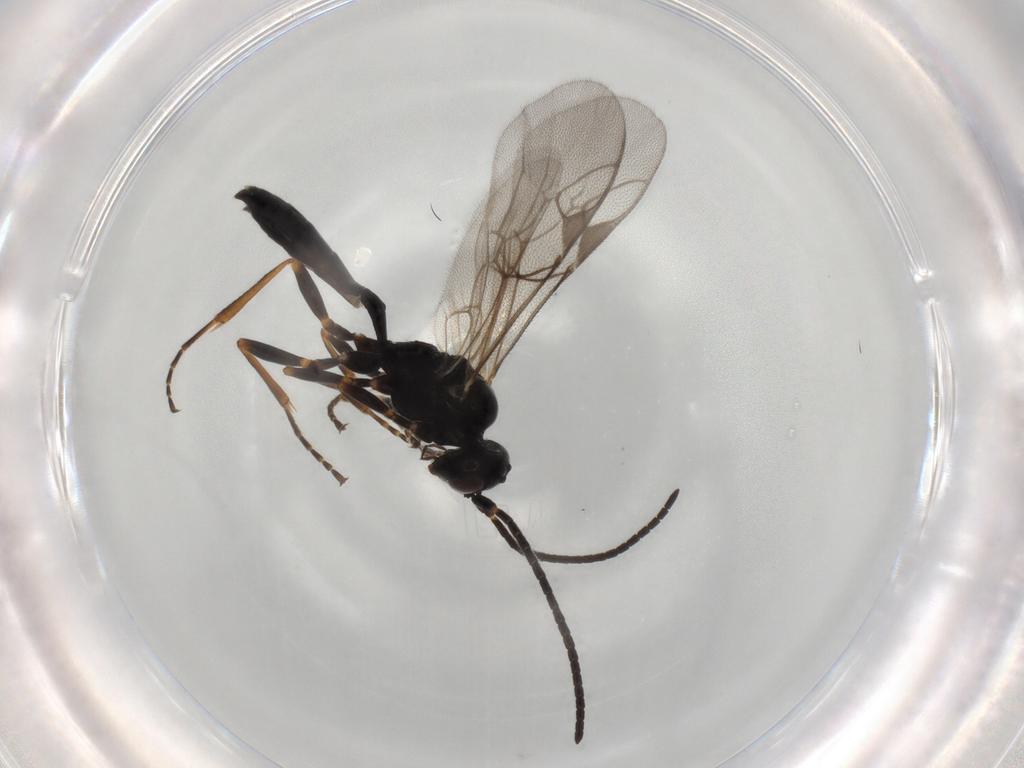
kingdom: Animalia
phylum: Arthropoda
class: Insecta
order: Hymenoptera
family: Ichneumonidae
